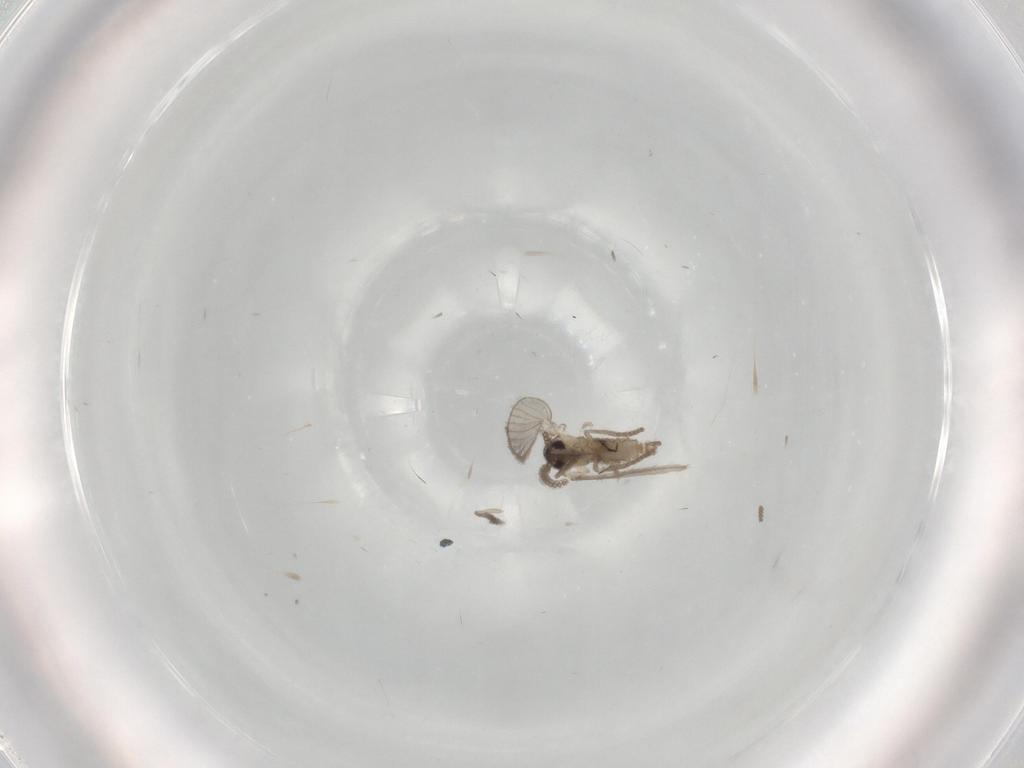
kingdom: Animalia
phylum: Arthropoda
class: Insecta
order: Diptera
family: Psychodidae
